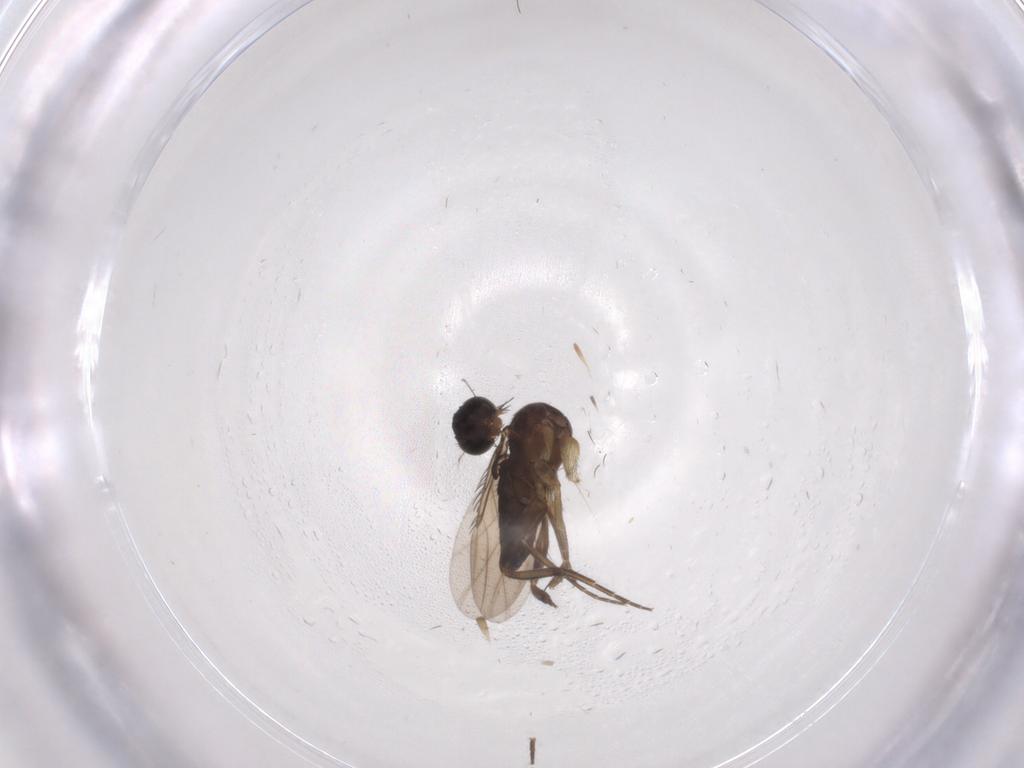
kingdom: Animalia
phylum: Arthropoda
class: Insecta
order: Diptera
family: Phoridae
